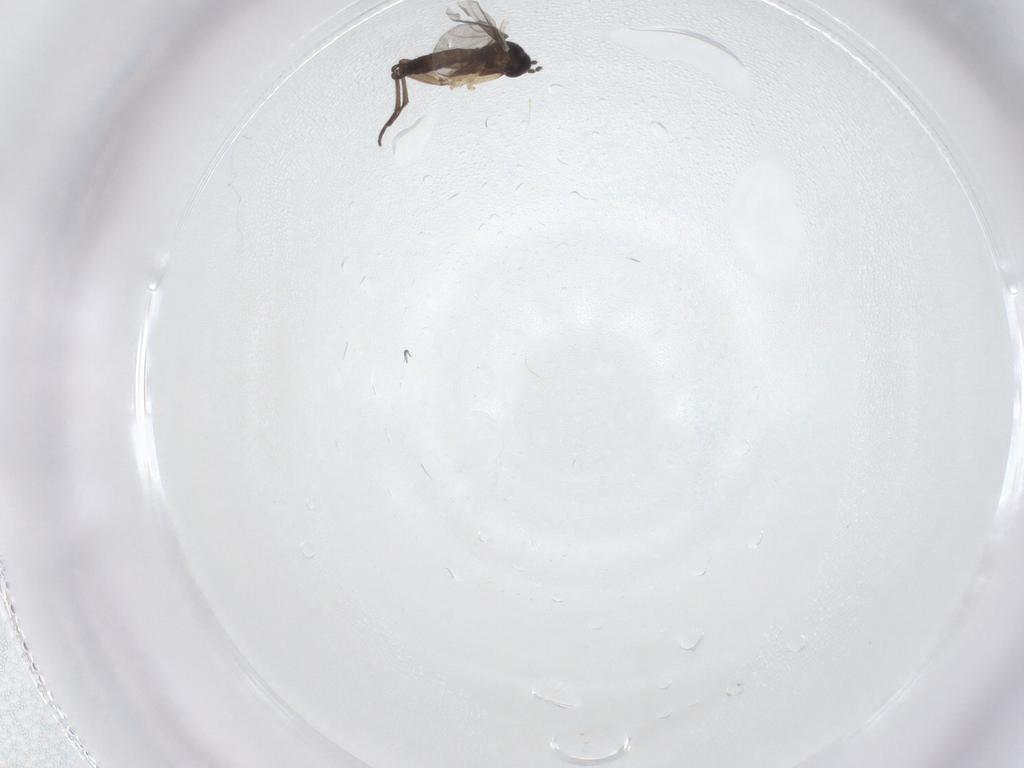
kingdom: Animalia
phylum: Arthropoda
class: Insecta
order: Diptera
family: Sciaridae
